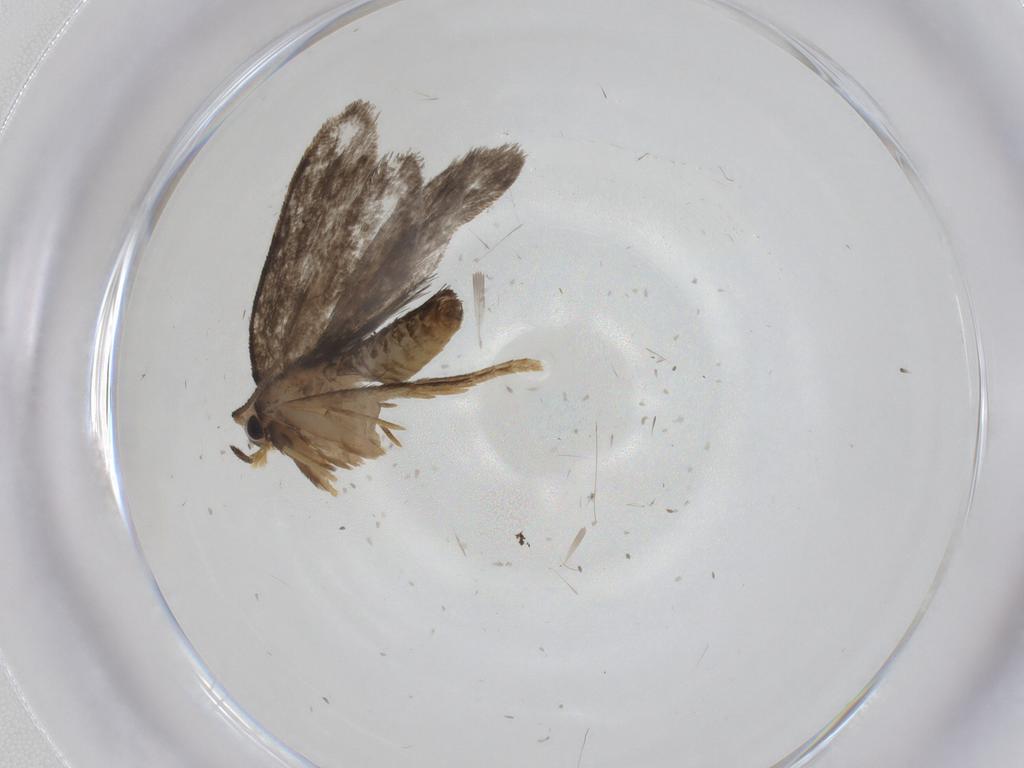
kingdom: Animalia
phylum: Arthropoda
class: Insecta
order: Lepidoptera
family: Psychidae
